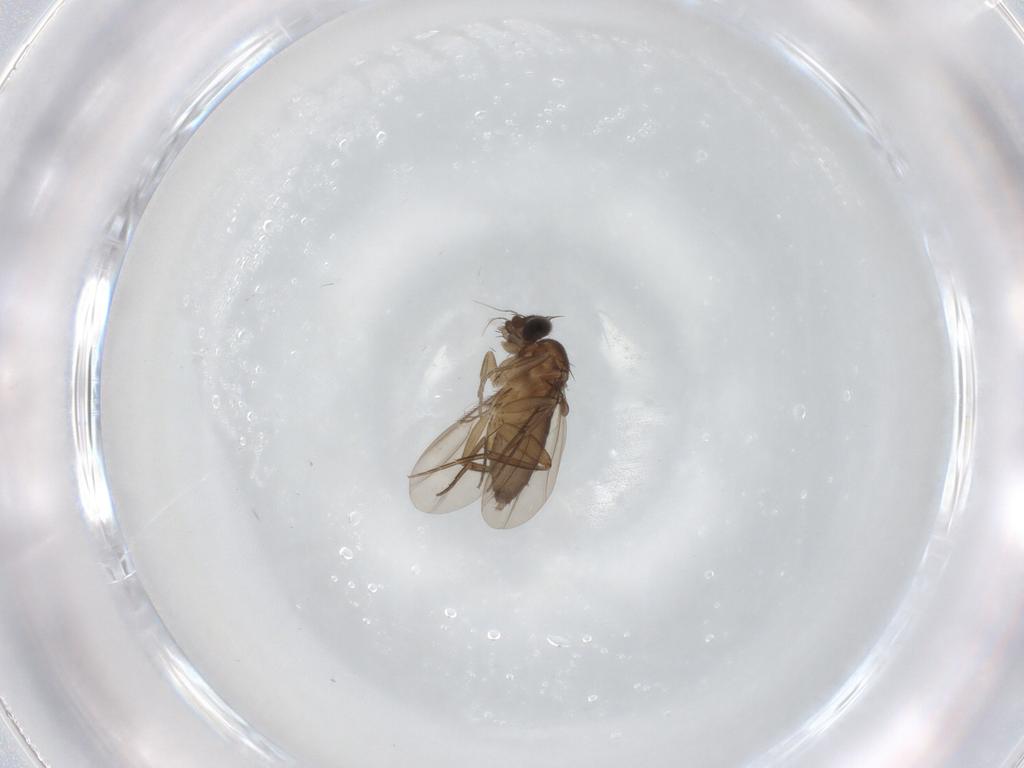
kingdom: Animalia
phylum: Arthropoda
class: Insecta
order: Diptera
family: Phoridae
